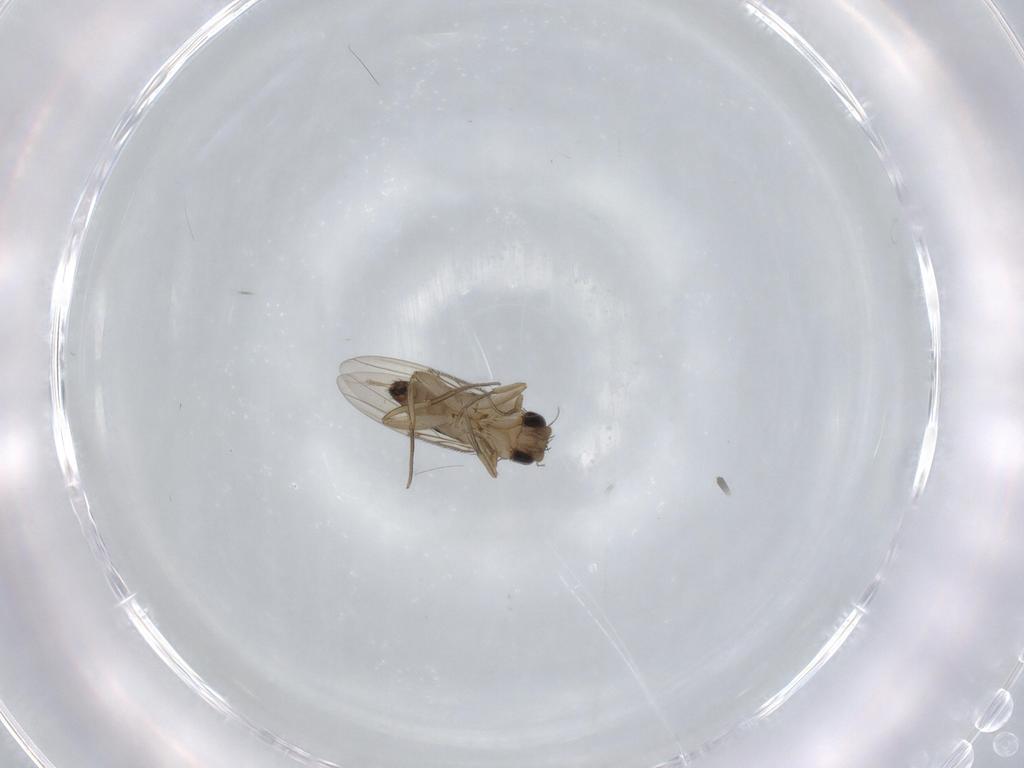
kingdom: Animalia
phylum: Arthropoda
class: Insecta
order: Diptera
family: Phoridae
